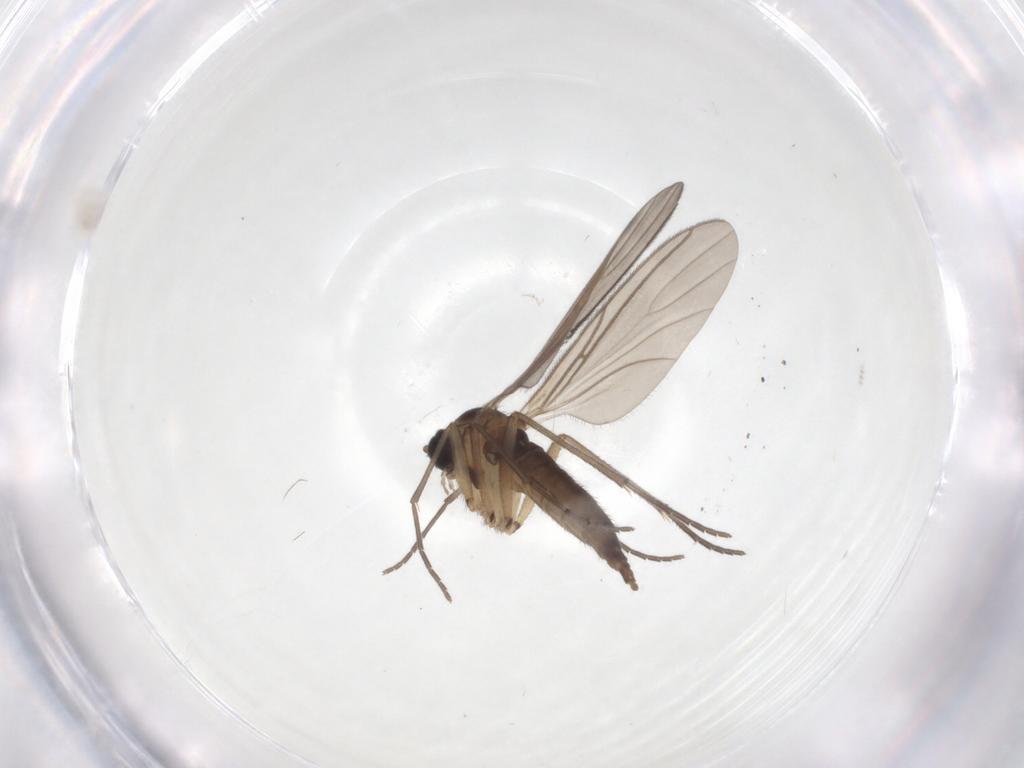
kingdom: Animalia
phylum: Arthropoda
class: Insecta
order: Diptera
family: Sciaridae
